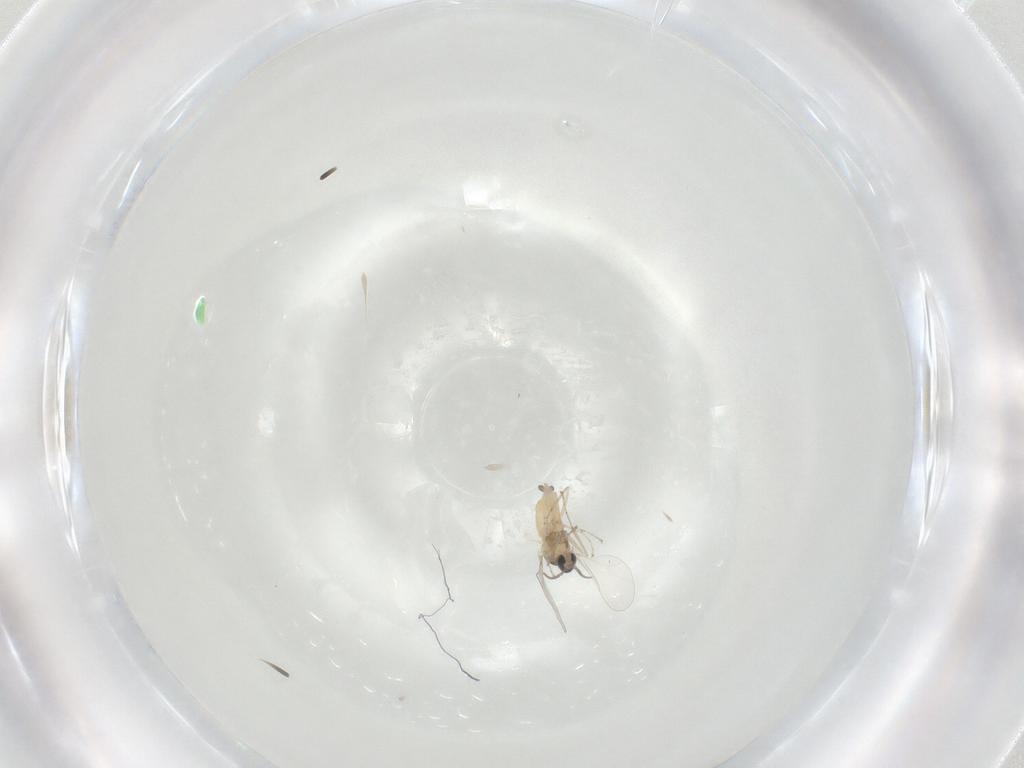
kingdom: Animalia
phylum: Arthropoda
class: Insecta
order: Diptera
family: Cecidomyiidae
